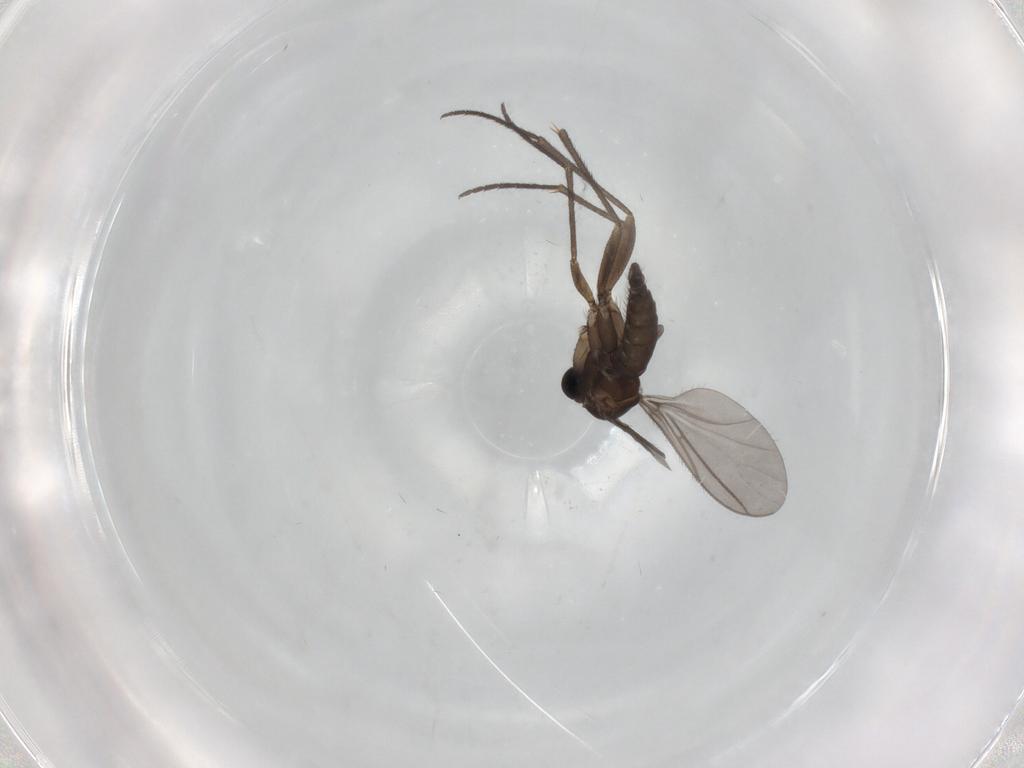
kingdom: Animalia
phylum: Arthropoda
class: Insecta
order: Diptera
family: Sciaridae
